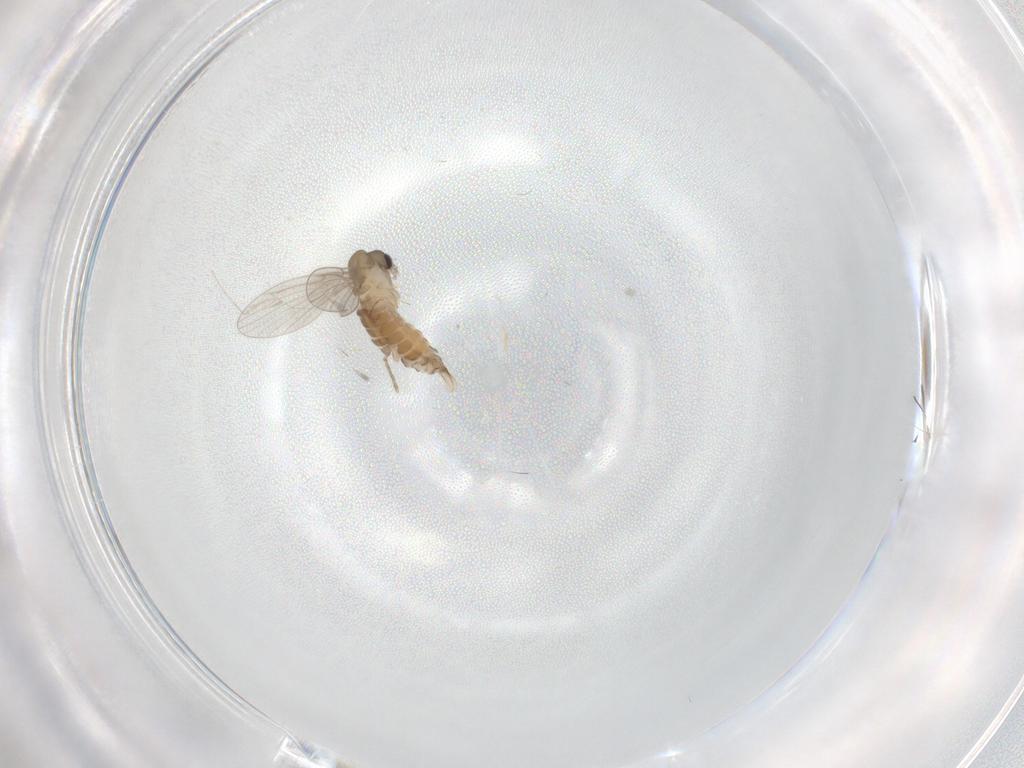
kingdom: Animalia
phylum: Arthropoda
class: Insecta
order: Diptera
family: Cecidomyiidae
